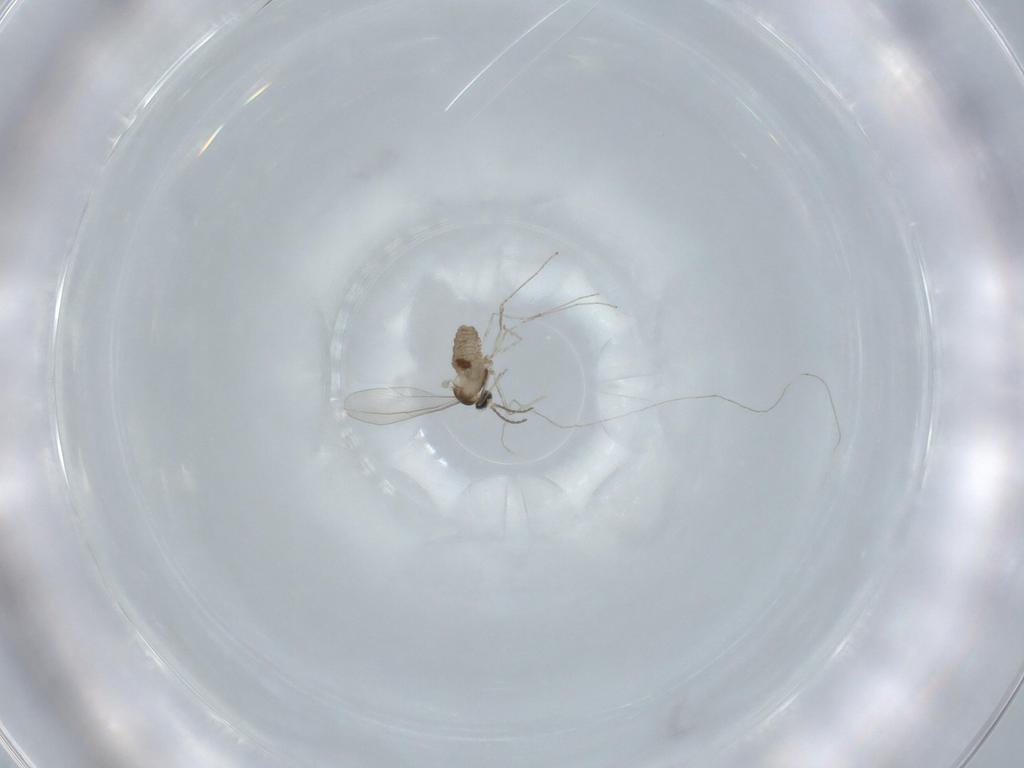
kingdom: Animalia
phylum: Arthropoda
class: Insecta
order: Diptera
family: Cecidomyiidae
